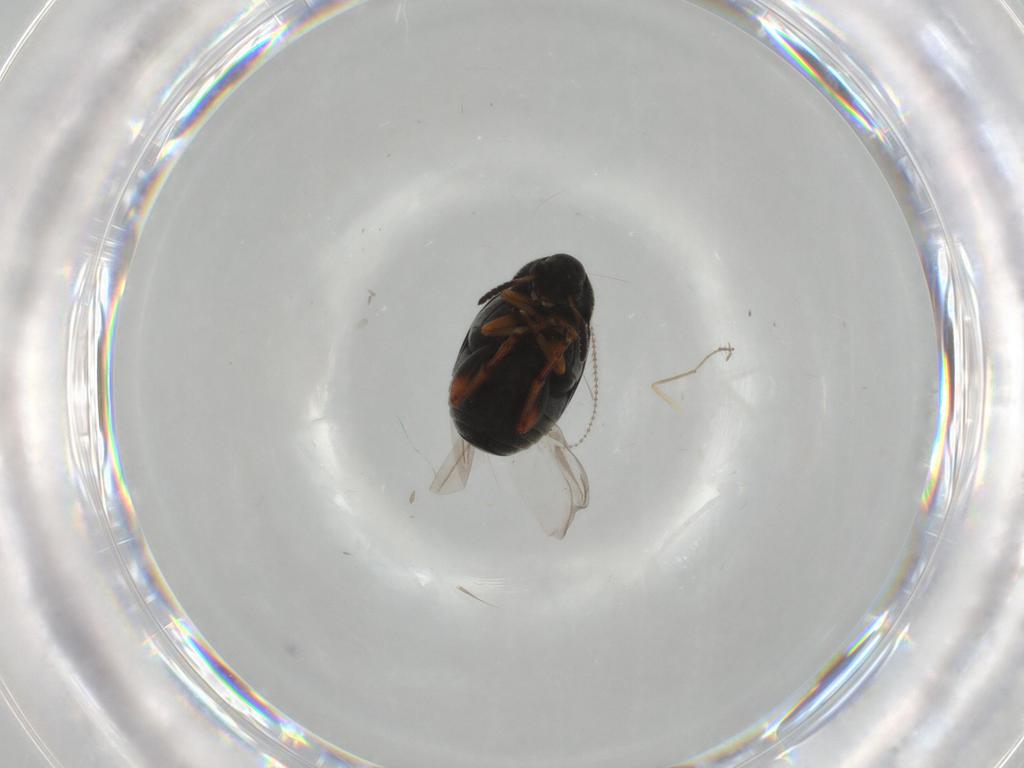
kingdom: Animalia
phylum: Arthropoda
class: Insecta
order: Coleoptera
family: Chrysomelidae
